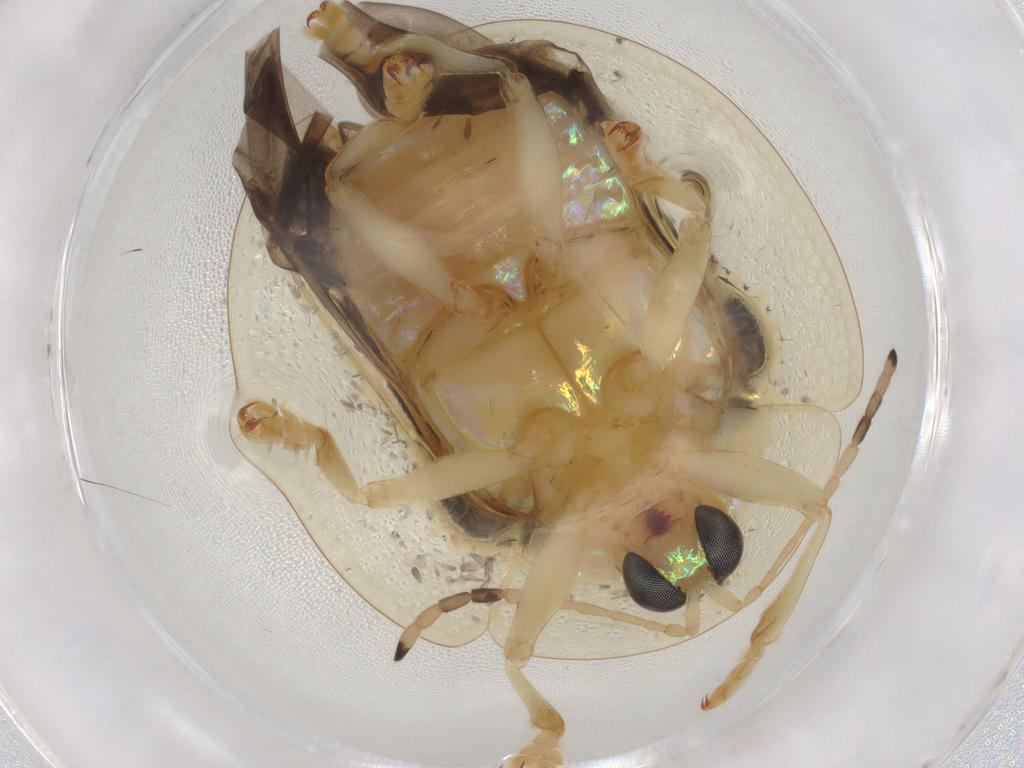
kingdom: Animalia
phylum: Arthropoda
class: Insecta
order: Coleoptera
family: Chrysomelidae
